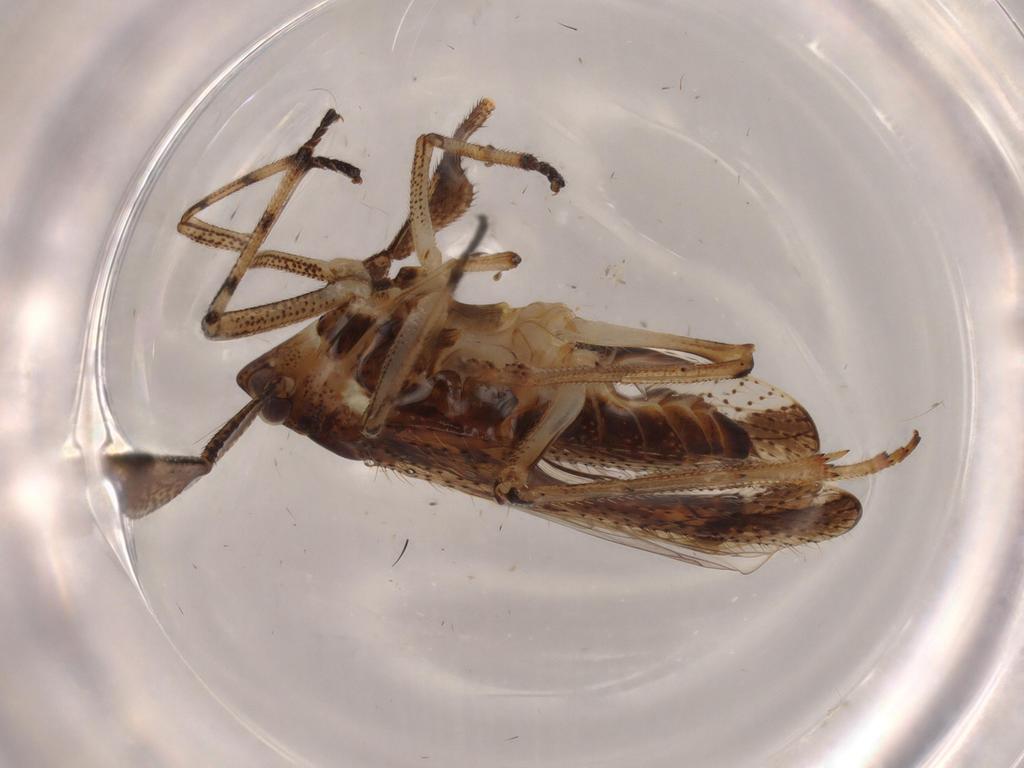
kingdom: Animalia
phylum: Arthropoda
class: Insecta
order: Hemiptera
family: Delphacidae
